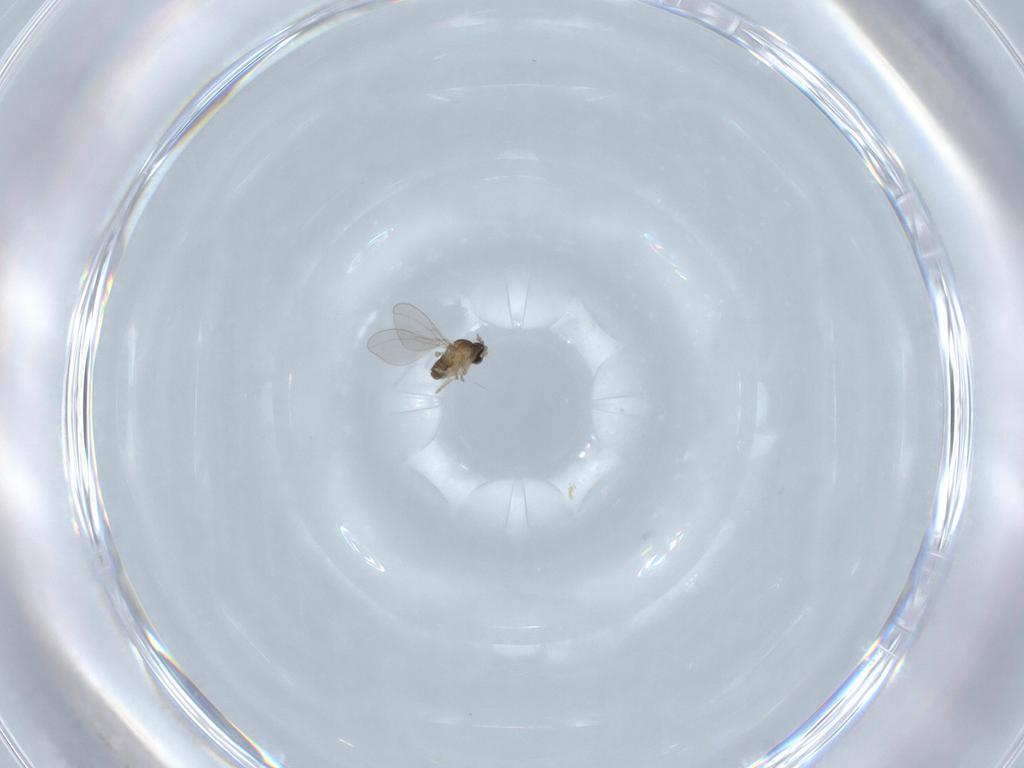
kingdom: Animalia
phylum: Arthropoda
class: Insecta
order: Diptera
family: Cecidomyiidae
